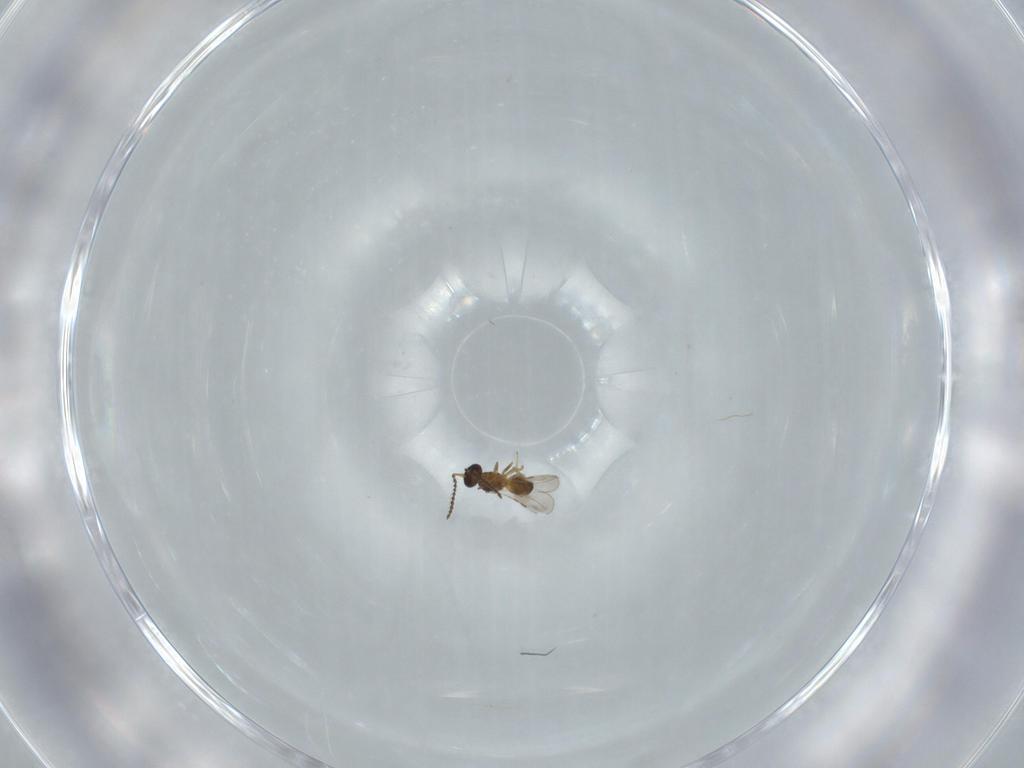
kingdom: Animalia
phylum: Arthropoda
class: Insecta
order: Hymenoptera
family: Ceraphronidae
